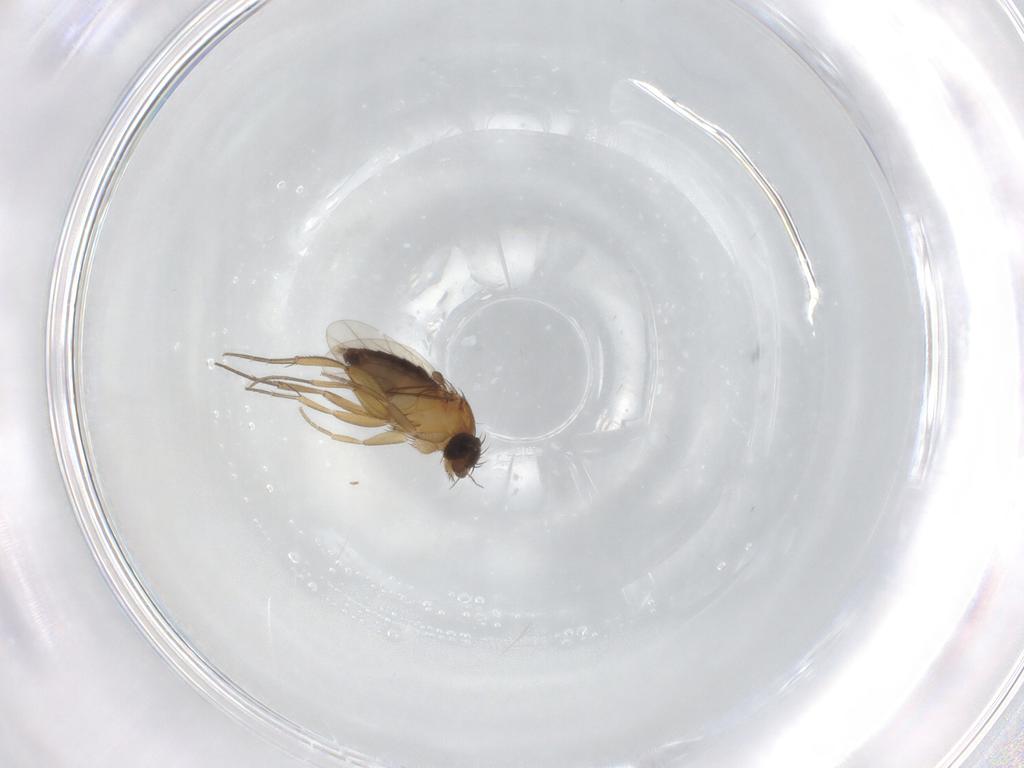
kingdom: Animalia
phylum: Arthropoda
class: Insecta
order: Diptera
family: Phoridae
